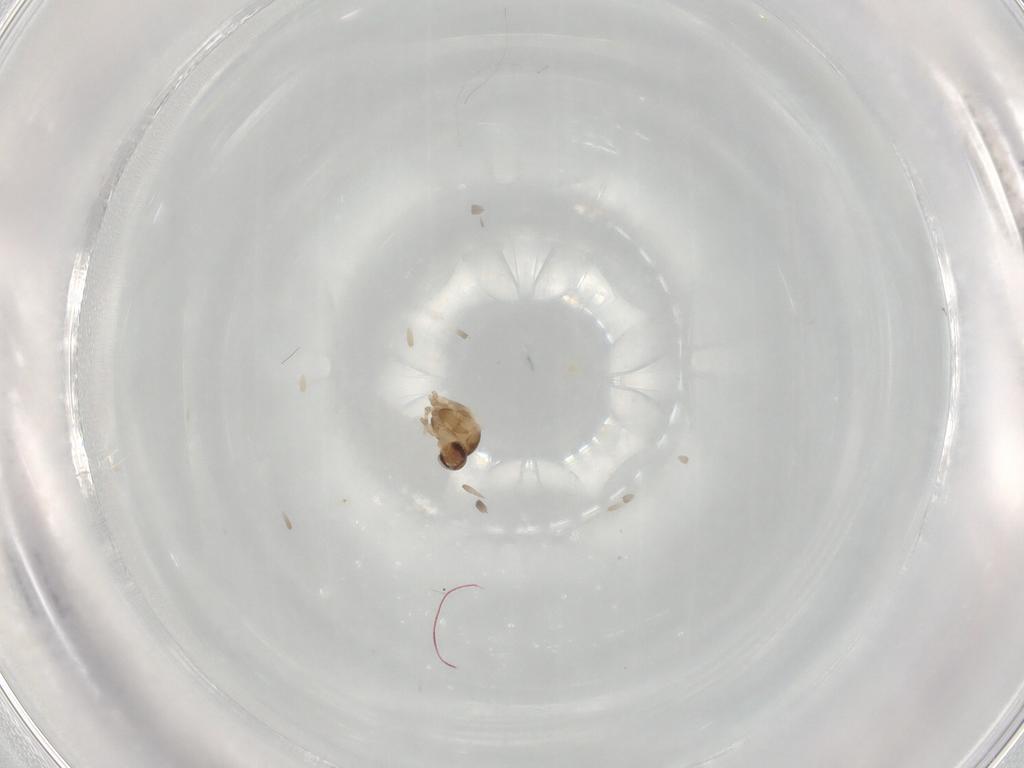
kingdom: Animalia
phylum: Arthropoda
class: Insecta
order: Diptera
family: Cecidomyiidae
